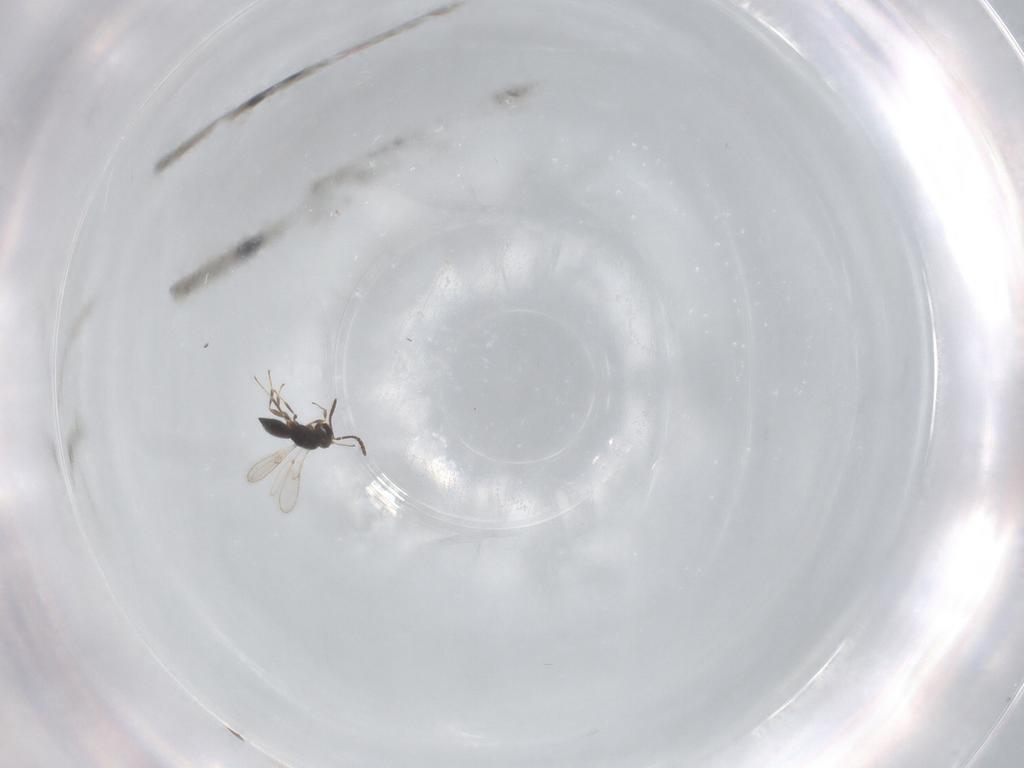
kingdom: Animalia
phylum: Arthropoda
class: Insecta
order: Hymenoptera
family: Scelionidae
